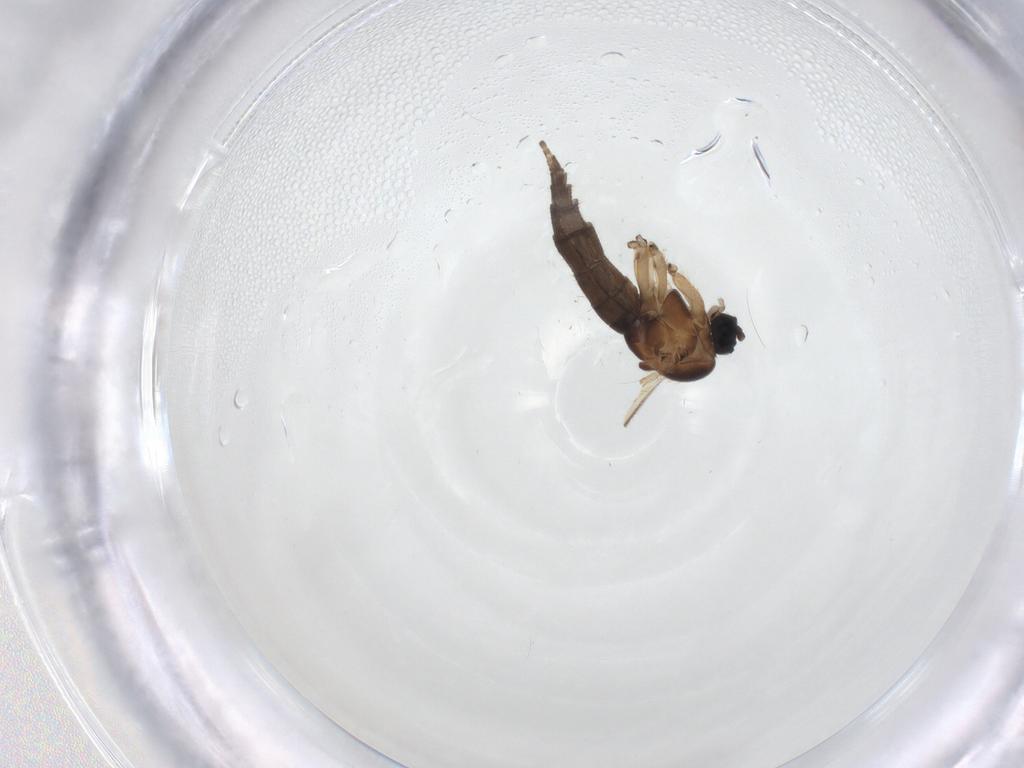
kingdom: Animalia
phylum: Arthropoda
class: Insecta
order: Diptera
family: Sciaridae
